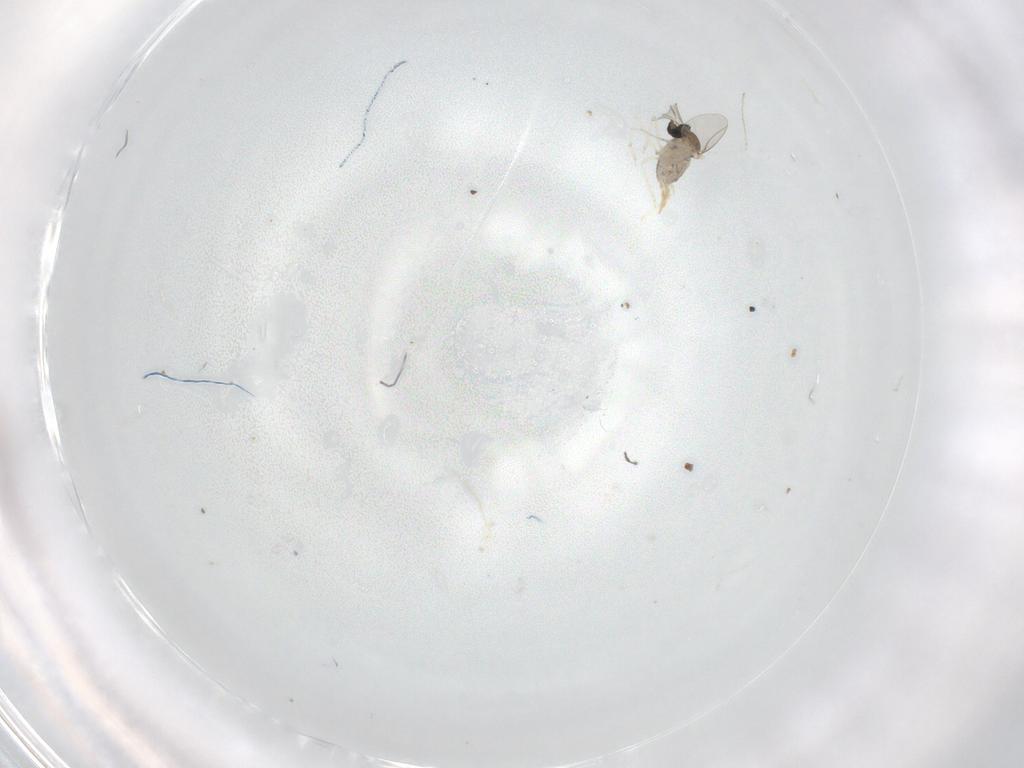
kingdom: Animalia
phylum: Arthropoda
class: Insecta
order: Diptera
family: Cecidomyiidae
